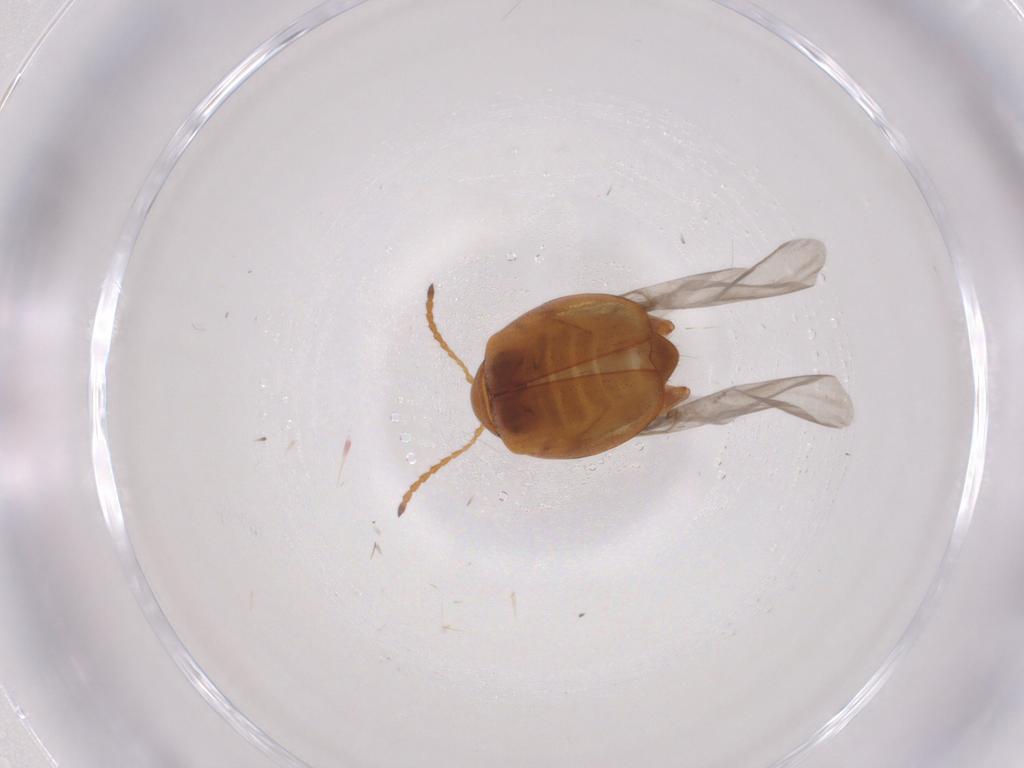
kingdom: Animalia
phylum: Arthropoda
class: Insecta
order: Coleoptera
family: Chrysomelidae
